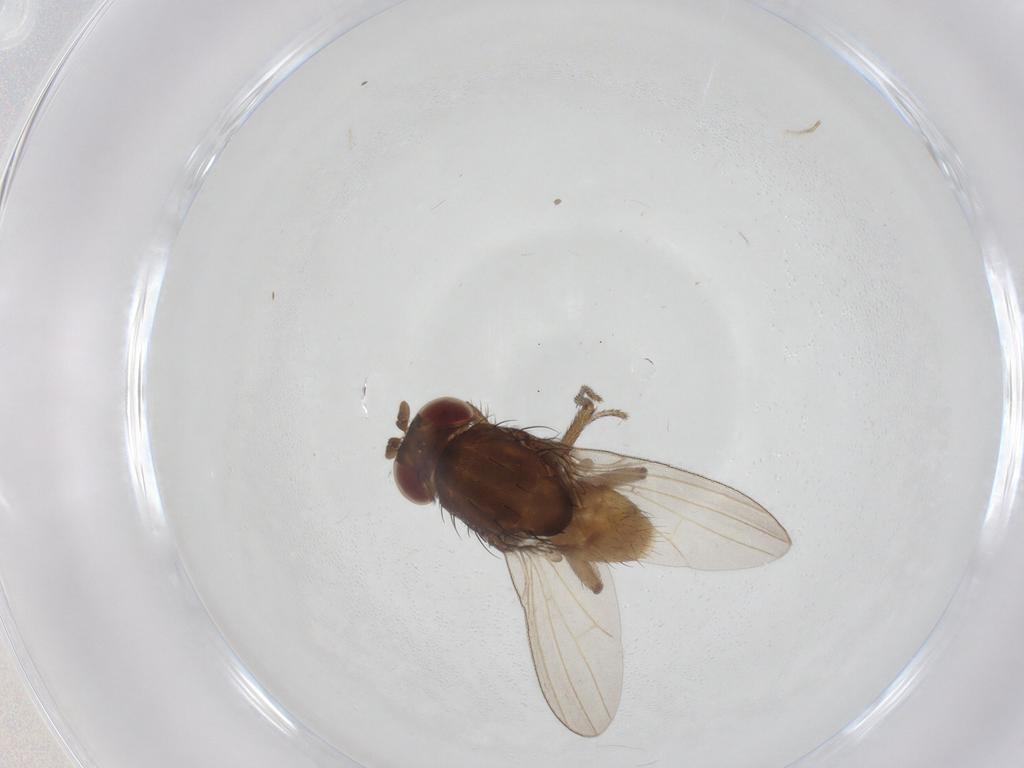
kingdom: Animalia
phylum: Arthropoda
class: Insecta
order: Diptera
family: Chironomidae
